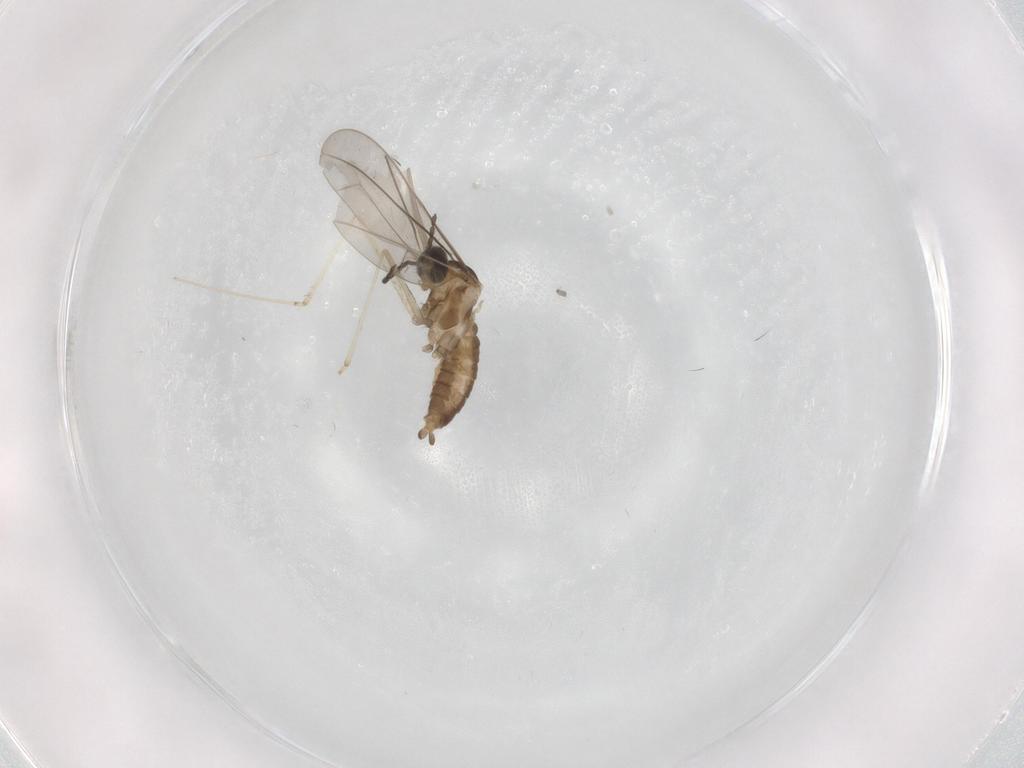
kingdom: Animalia
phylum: Arthropoda
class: Insecta
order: Diptera
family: Cecidomyiidae
